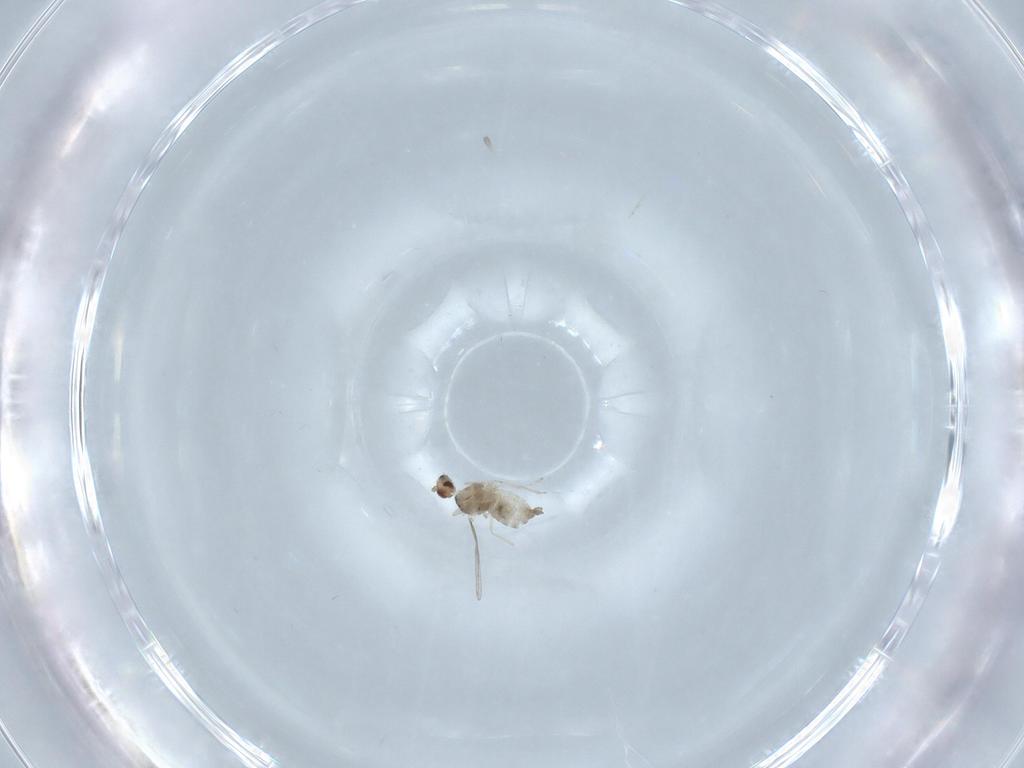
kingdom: Animalia
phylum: Arthropoda
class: Insecta
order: Diptera
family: Cecidomyiidae
